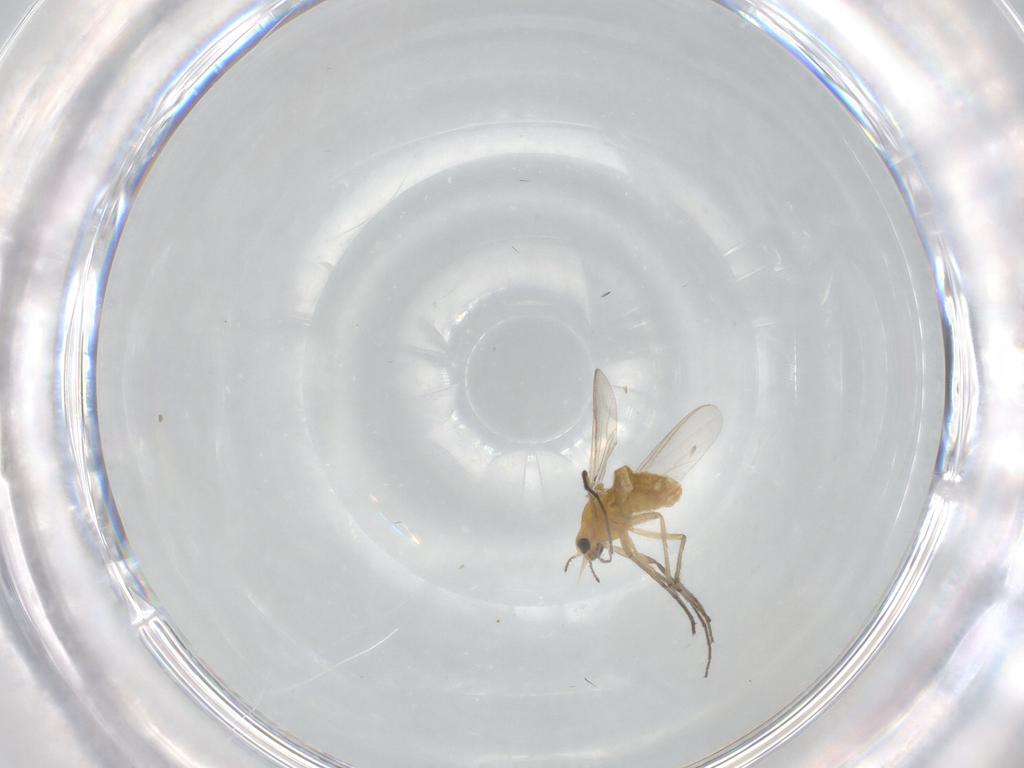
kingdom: Animalia
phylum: Arthropoda
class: Insecta
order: Diptera
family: Chironomidae
